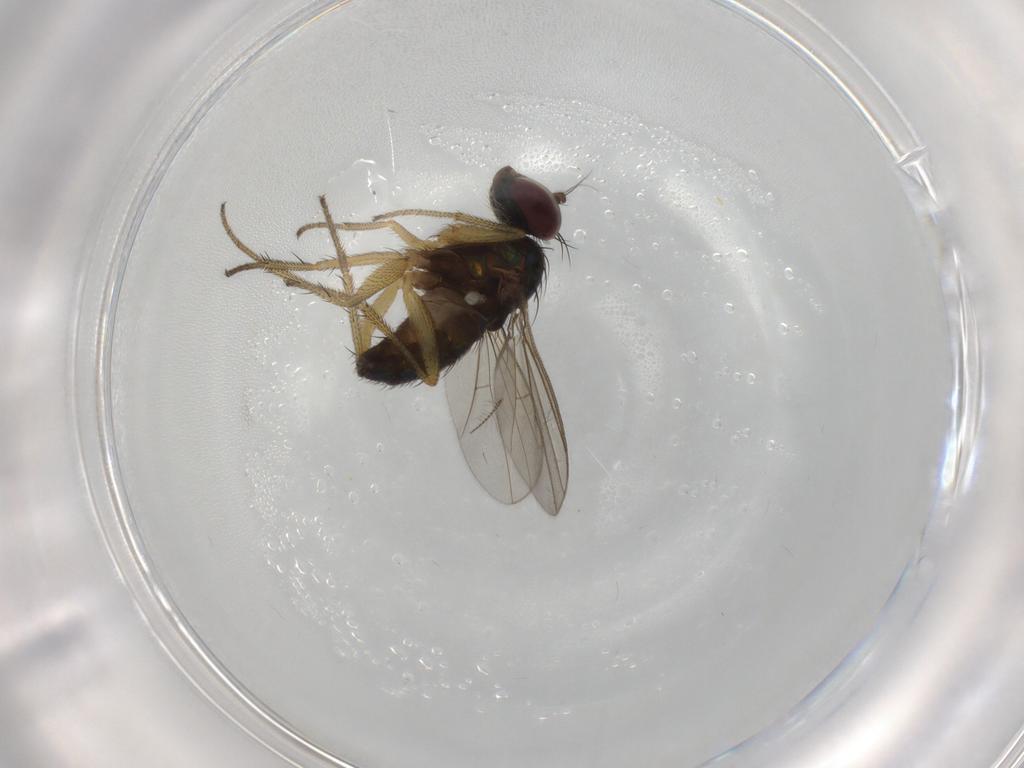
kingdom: Animalia
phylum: Arthropoda
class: Insecta
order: Diptera
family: Dolichopodidae
